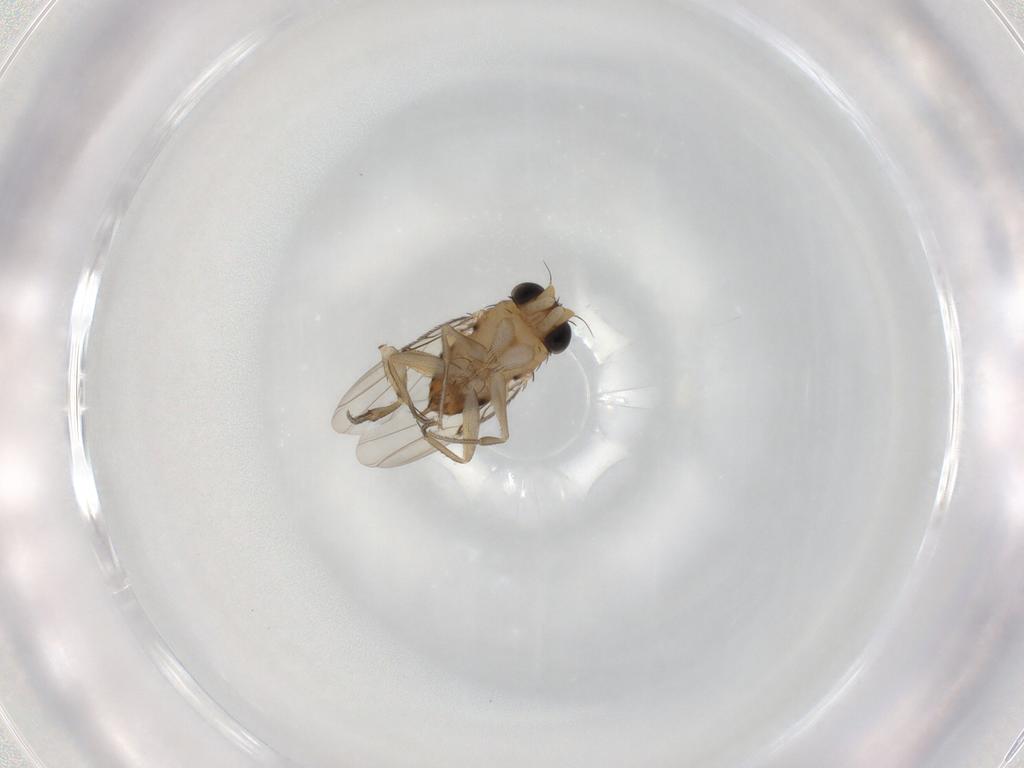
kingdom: Animalia
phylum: Arthropoda
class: Insecta
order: Diptera
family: Phoridae
